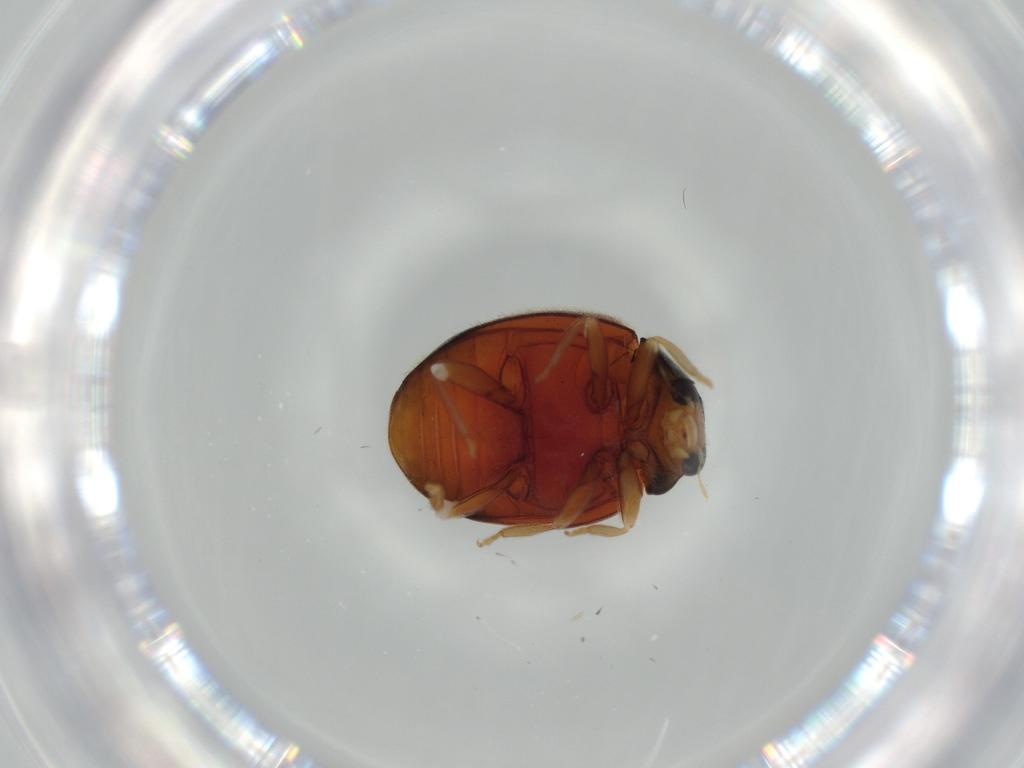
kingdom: Animalia
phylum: Arthropoda
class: Insecta
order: Coleoptera
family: Coccinellidae
